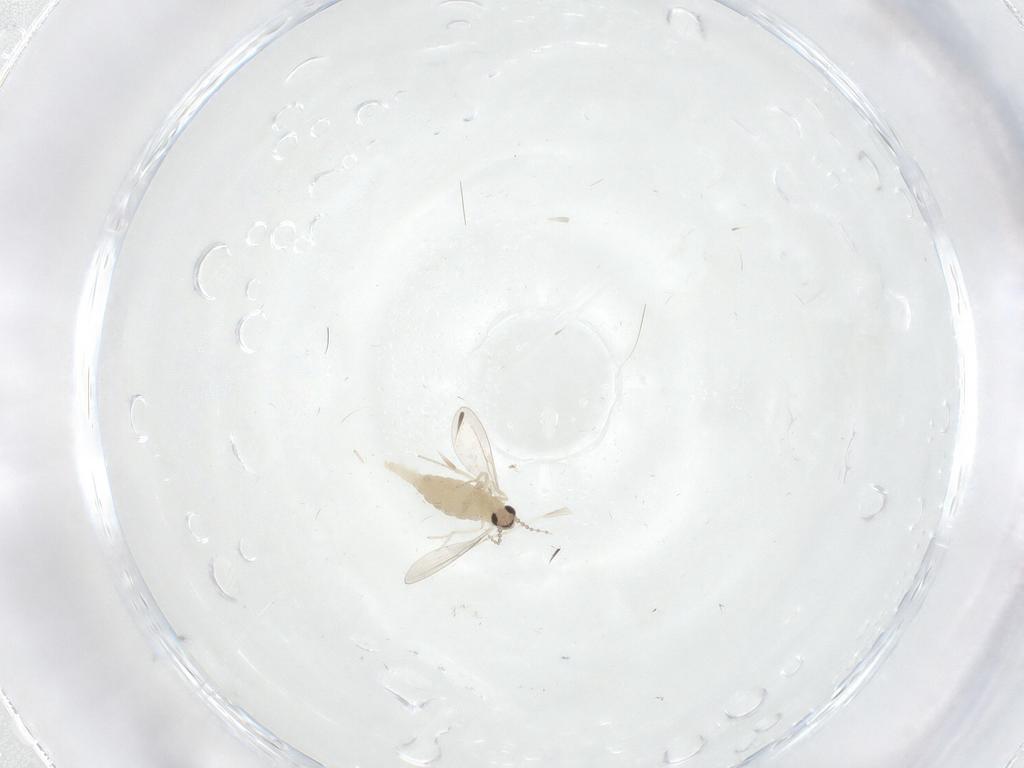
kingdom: Animalia
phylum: Arthropoda
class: Insecta
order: Diptera
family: Cecidomyiidae
